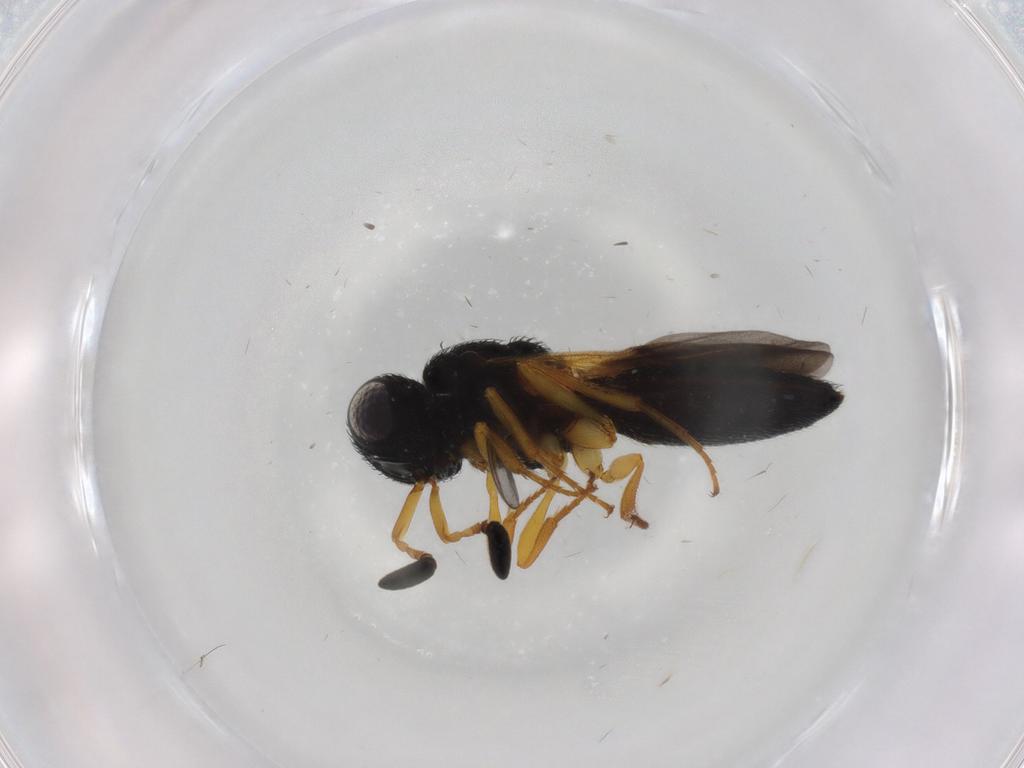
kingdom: Animalia
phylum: Arthropoda
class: Insecta
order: Hymenoptera
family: Scelionidae
